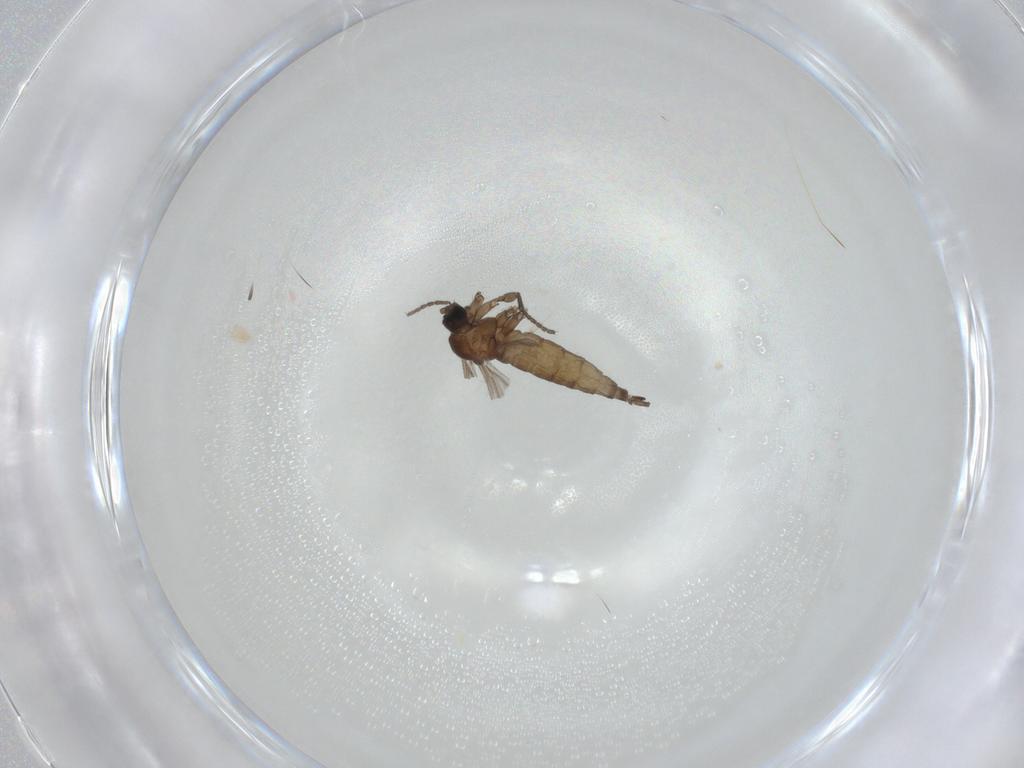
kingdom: Animalia
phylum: Arthropoda
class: Insecta
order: Diptera
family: Sciaridae
